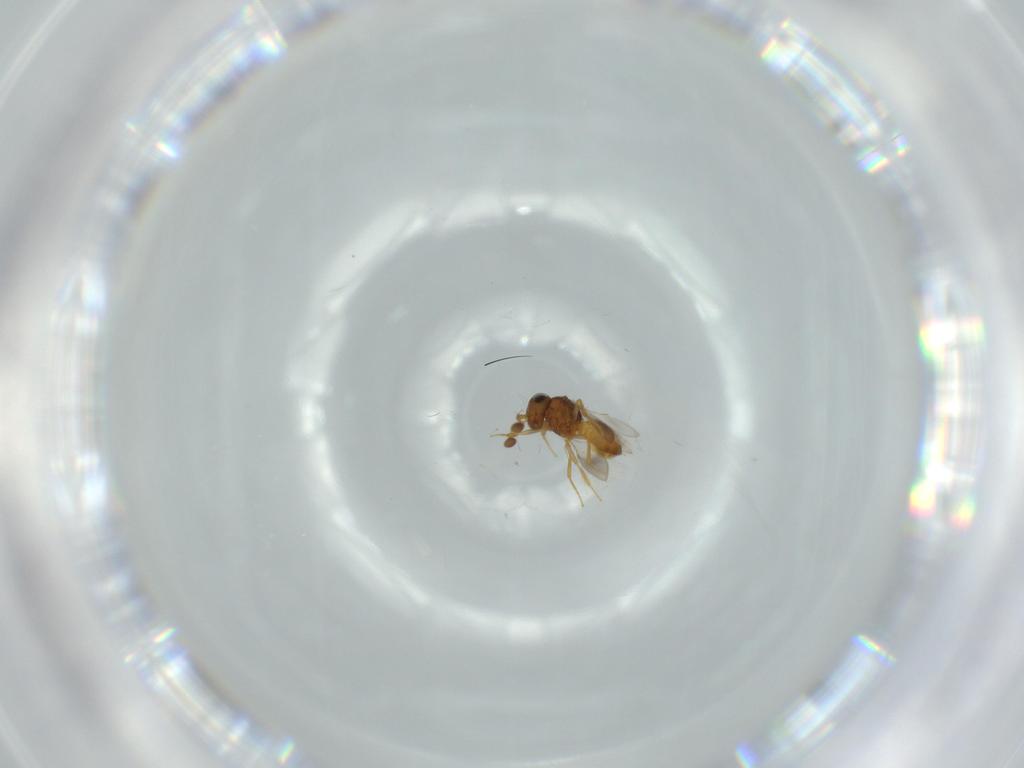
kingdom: Animalia
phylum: Arthropoda
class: Insecta
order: Hymenoptera
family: Scelionidae
